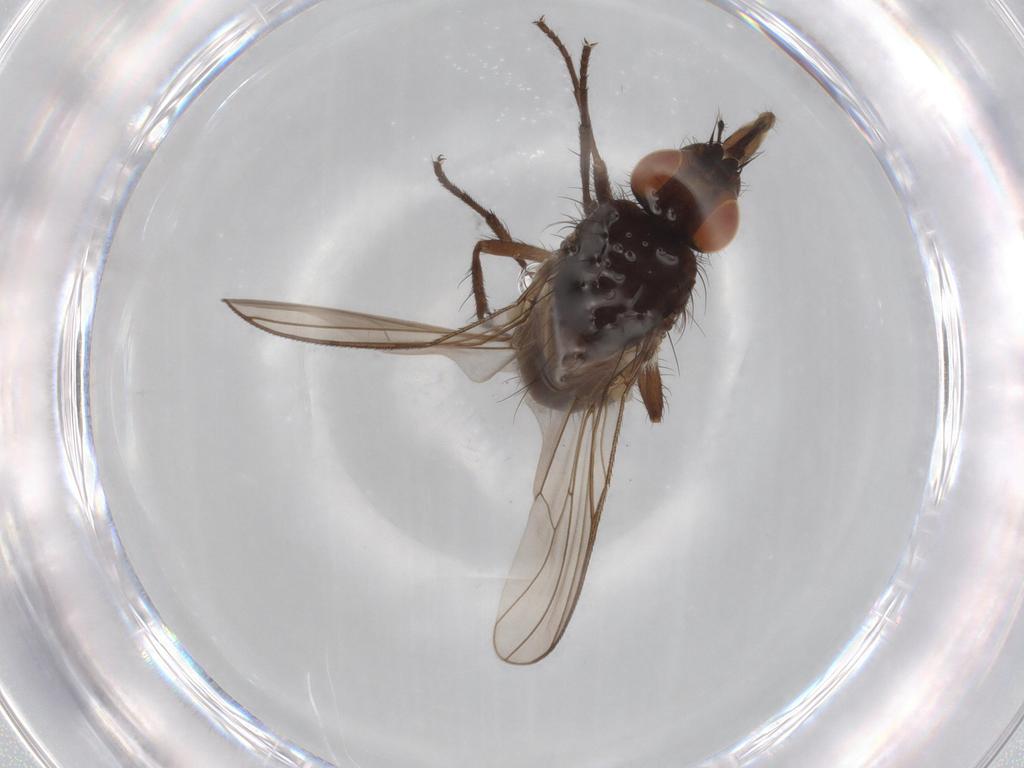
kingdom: Animalia
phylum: Arthropoda
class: Insecta
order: Diptera
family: Anthomyiidae
